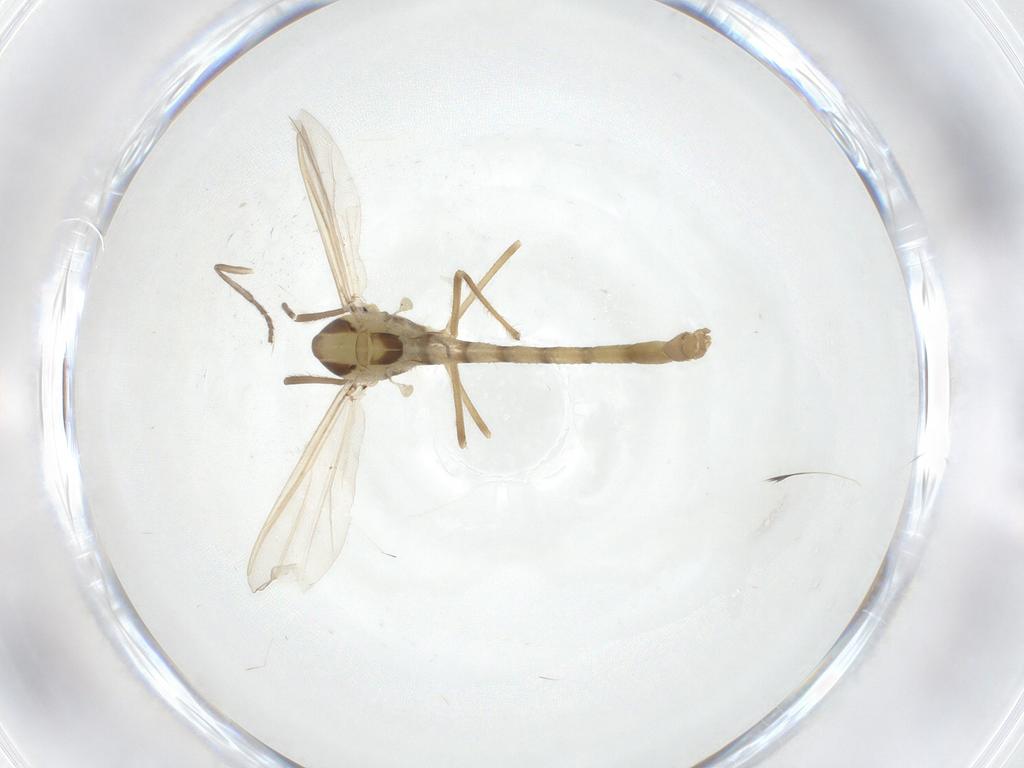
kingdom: Animalia
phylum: Arthropoda
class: Insecta
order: Diptera
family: Psychodidae
